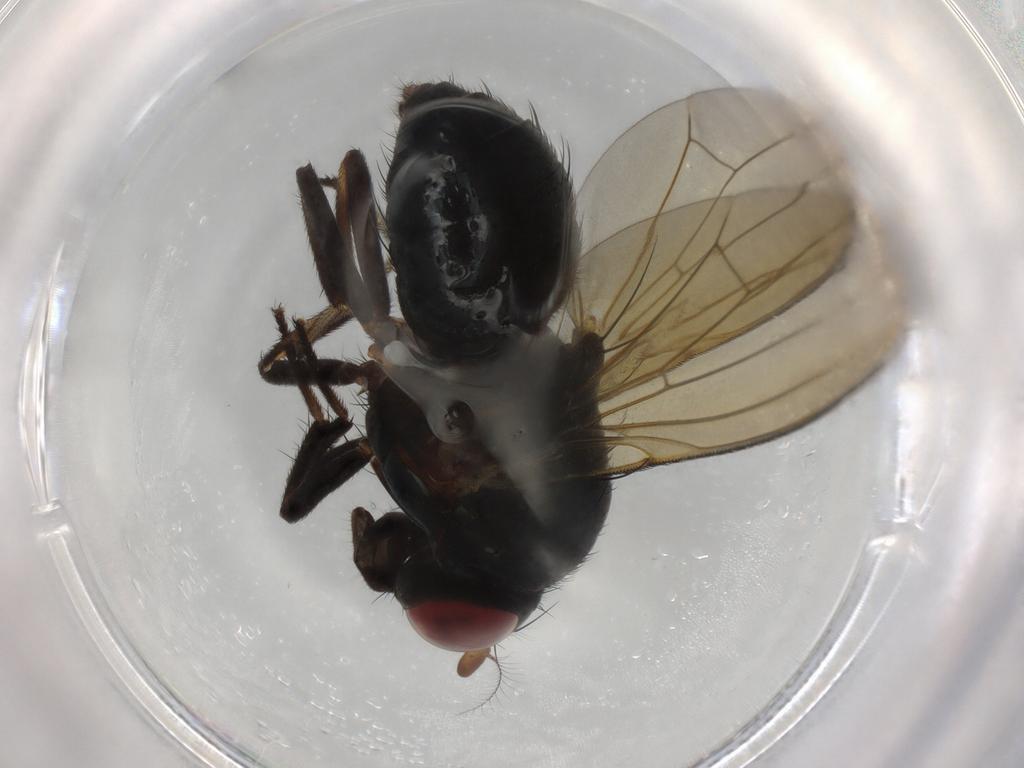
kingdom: Animalia
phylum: Arthropoda
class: Insecta
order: Diptera
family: Lauxaniidae
